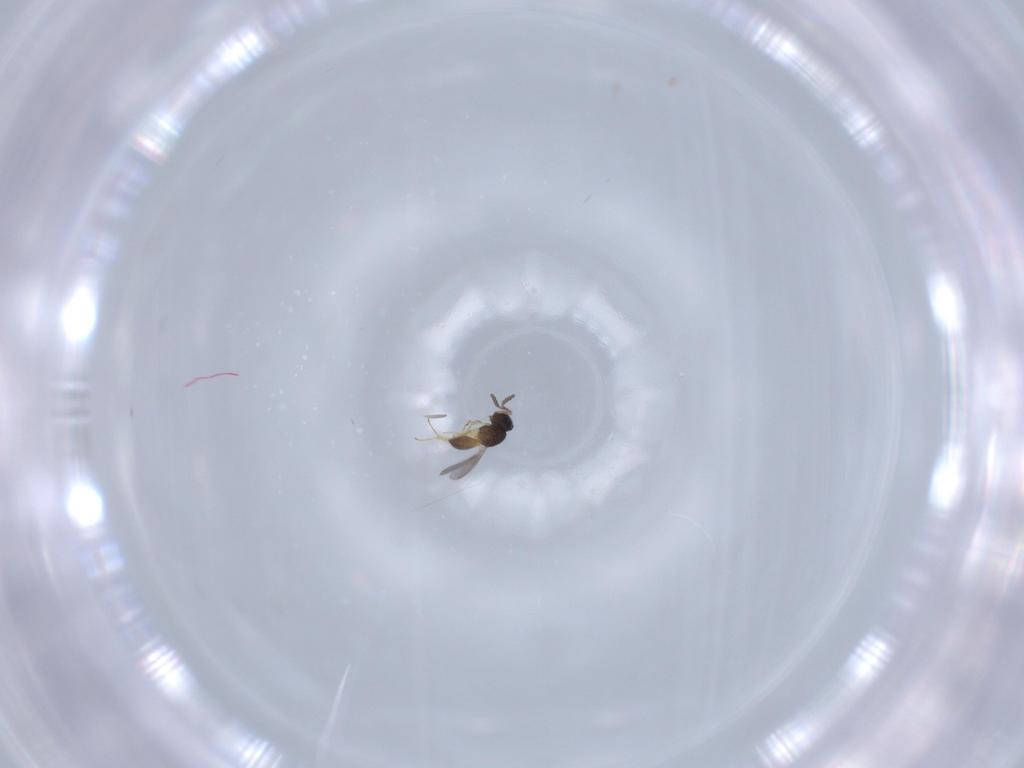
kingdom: Animalia
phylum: Arthropoda
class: Insecta
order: Hymenoptera
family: Scelionidae
